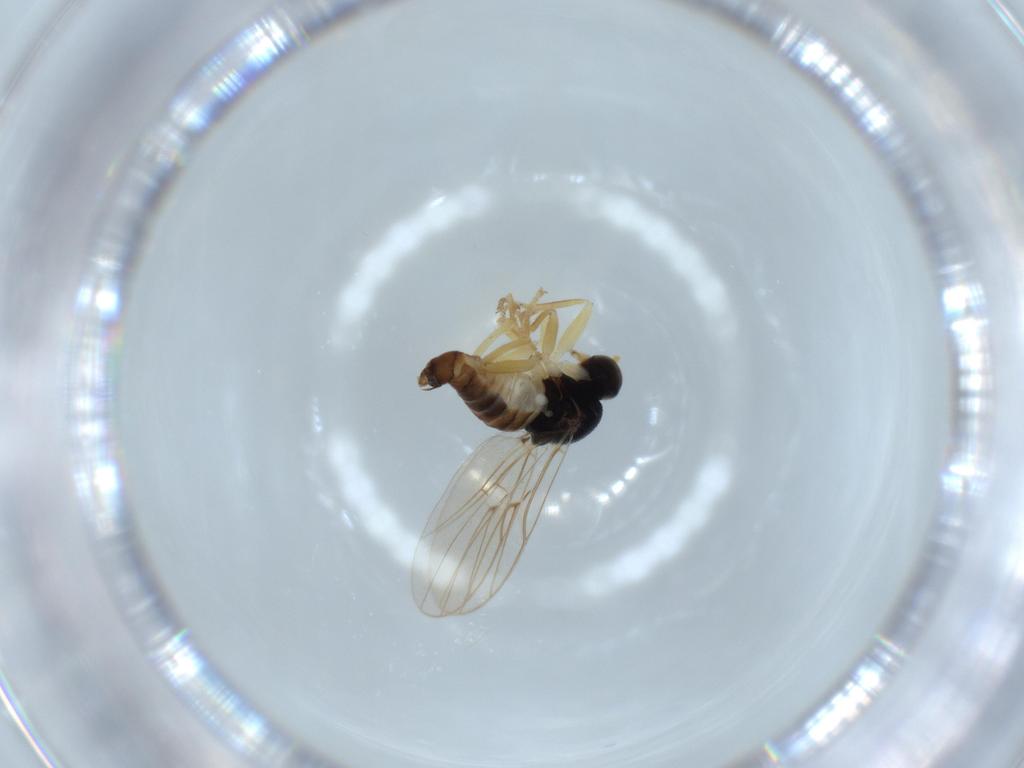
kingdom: Animalia
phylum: Arthropoda
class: Insecta
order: Diptera
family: Hybotidae
